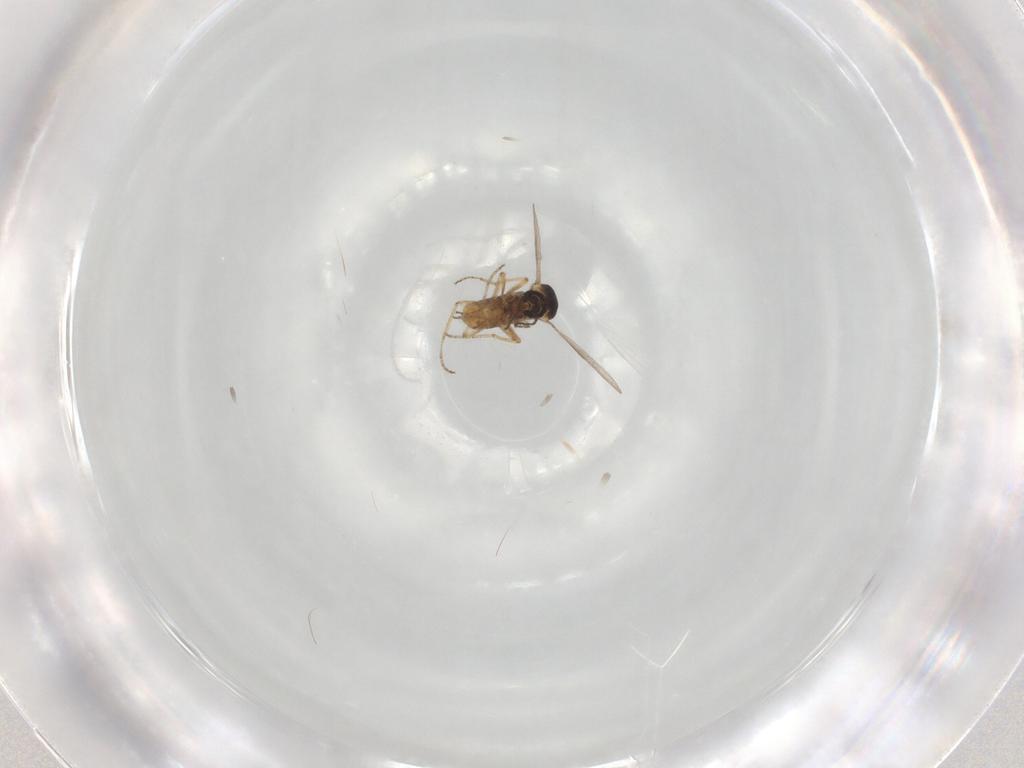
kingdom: Animalia
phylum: Arthropoda
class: Insecta
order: Diptera
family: Ceratopogonidae
